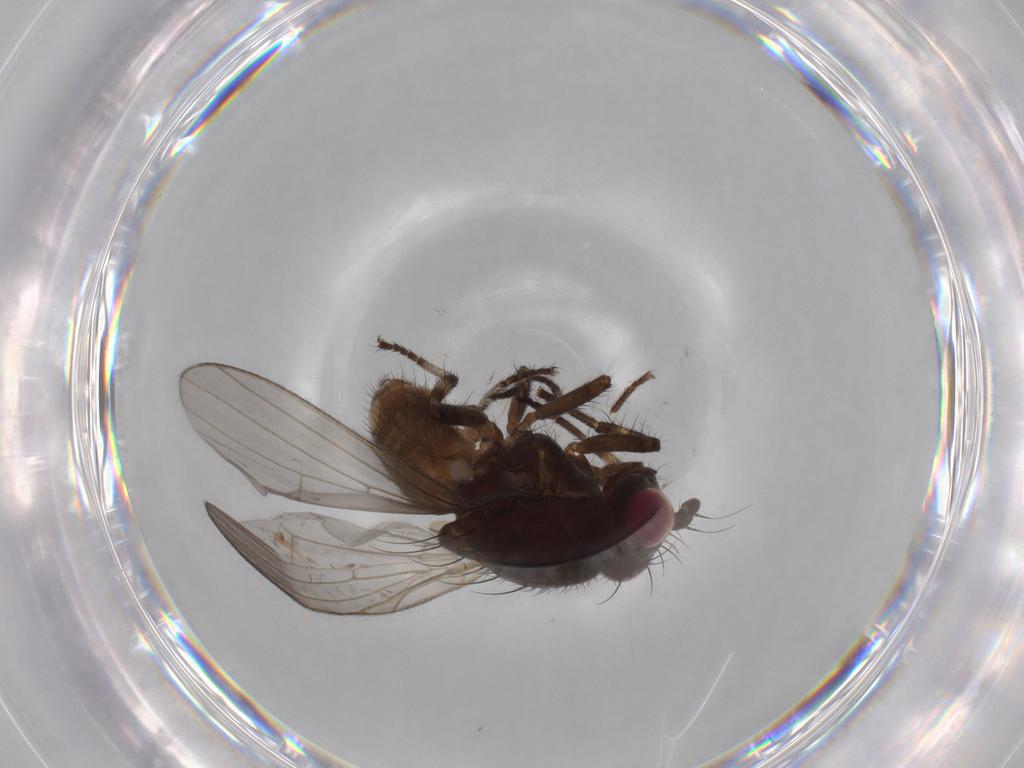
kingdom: Animalia
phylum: Arthropoda
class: Insecta
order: Diptera
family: Lauxaniidae
